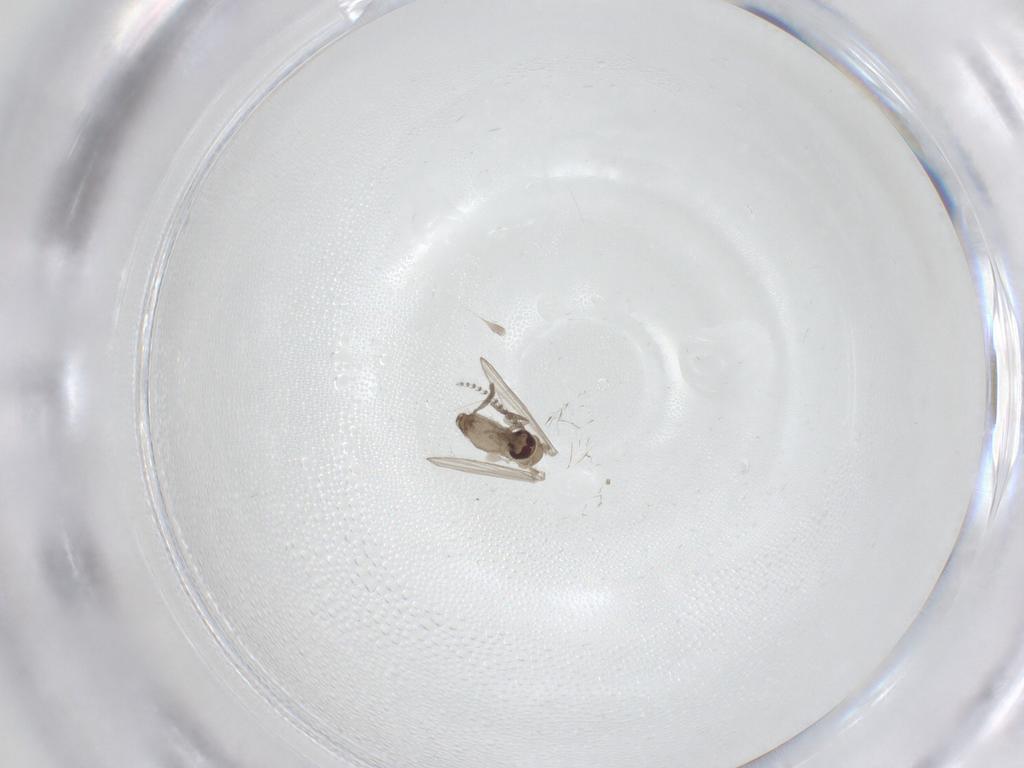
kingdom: Animalia
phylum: Arthropoda
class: Insecta
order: Diptera
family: Psychodidae
